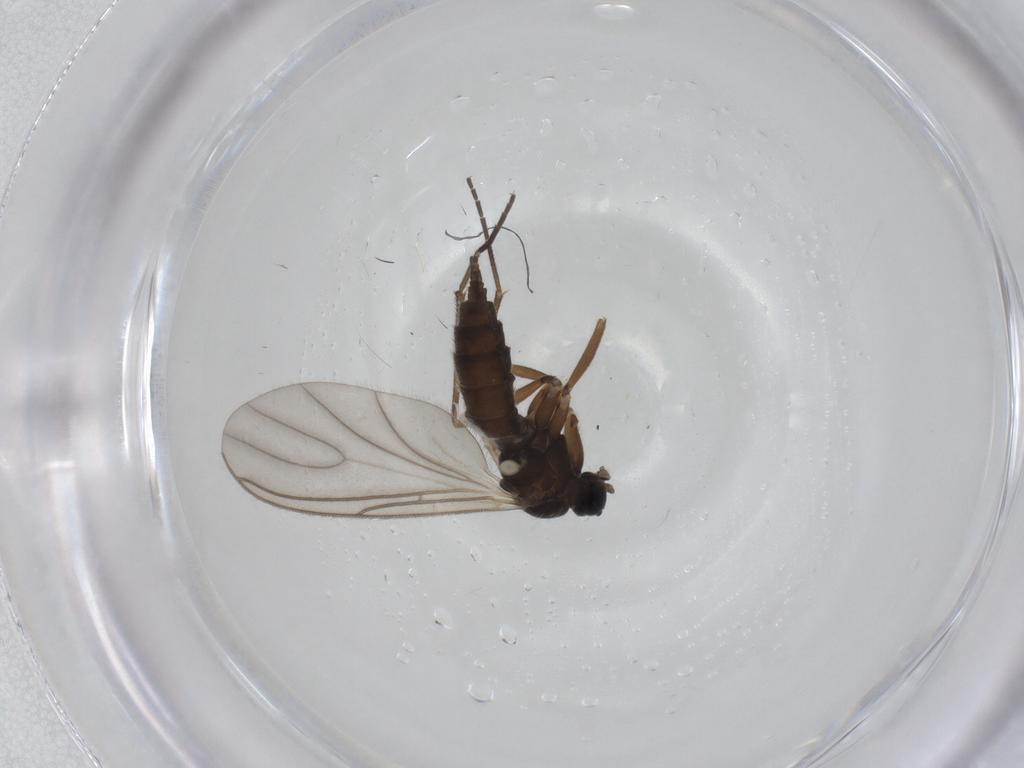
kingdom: Animalia
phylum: Arthropoda
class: Insecta
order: Diptera
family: Sciaridae
